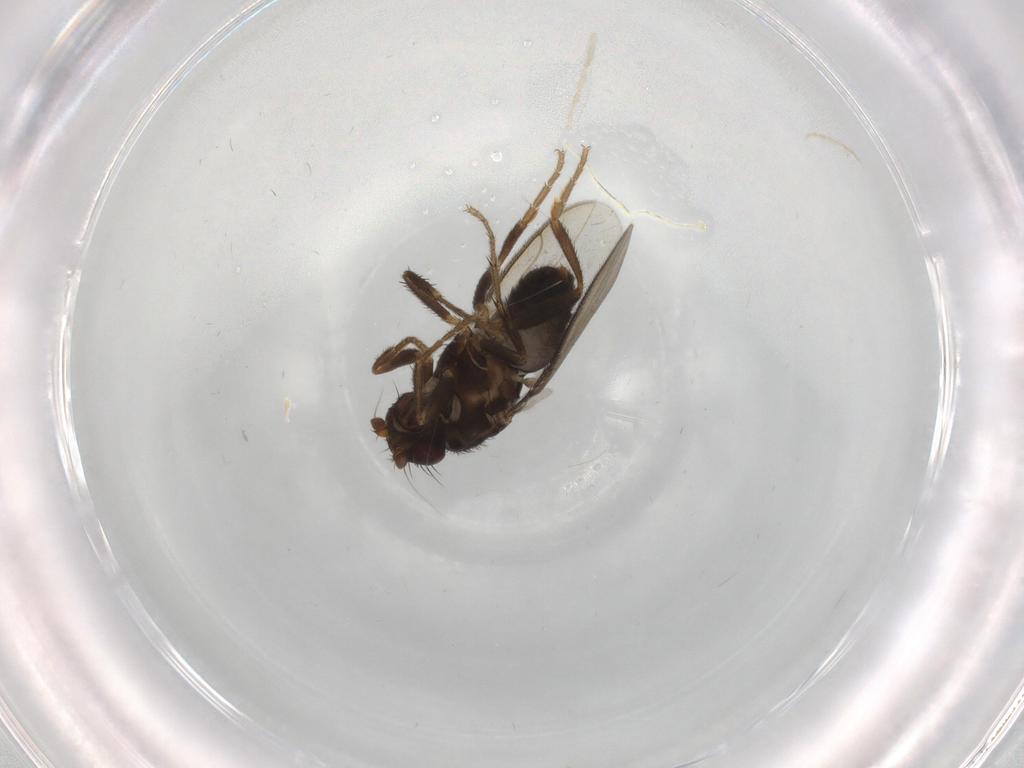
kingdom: Animalia
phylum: Arthropoda
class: Insecta
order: Diptera
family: Sphaeroceridae
